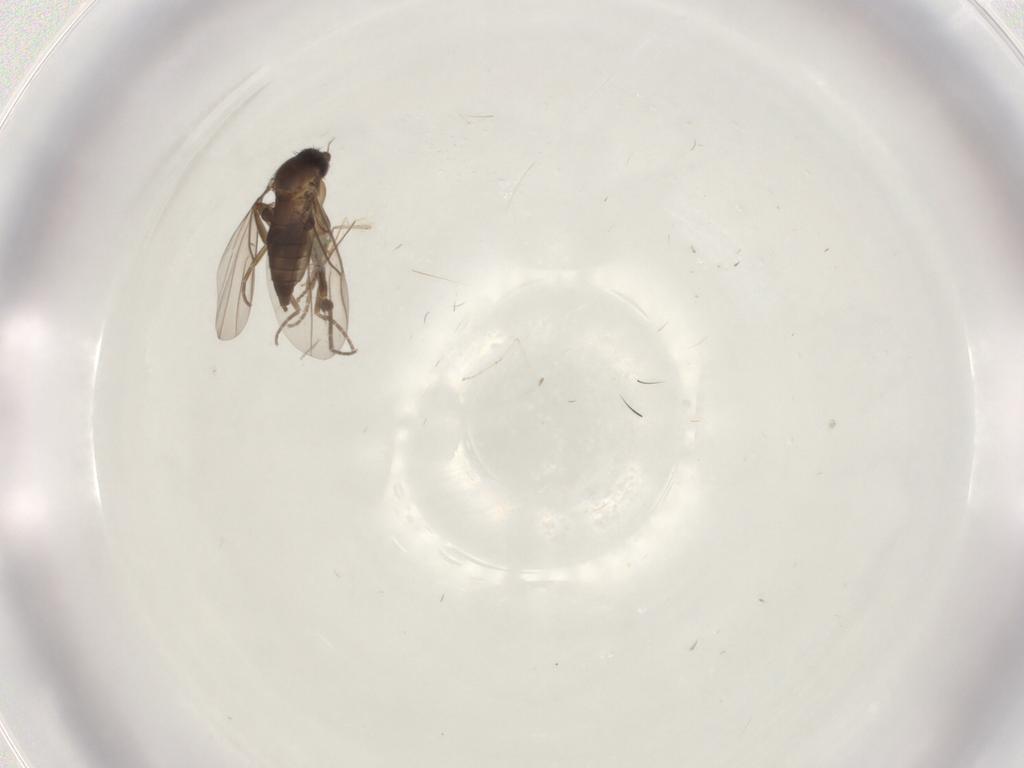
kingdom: Animalia
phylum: Arthropoda
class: Insecta
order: Diptera
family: Cecidomyiidae
